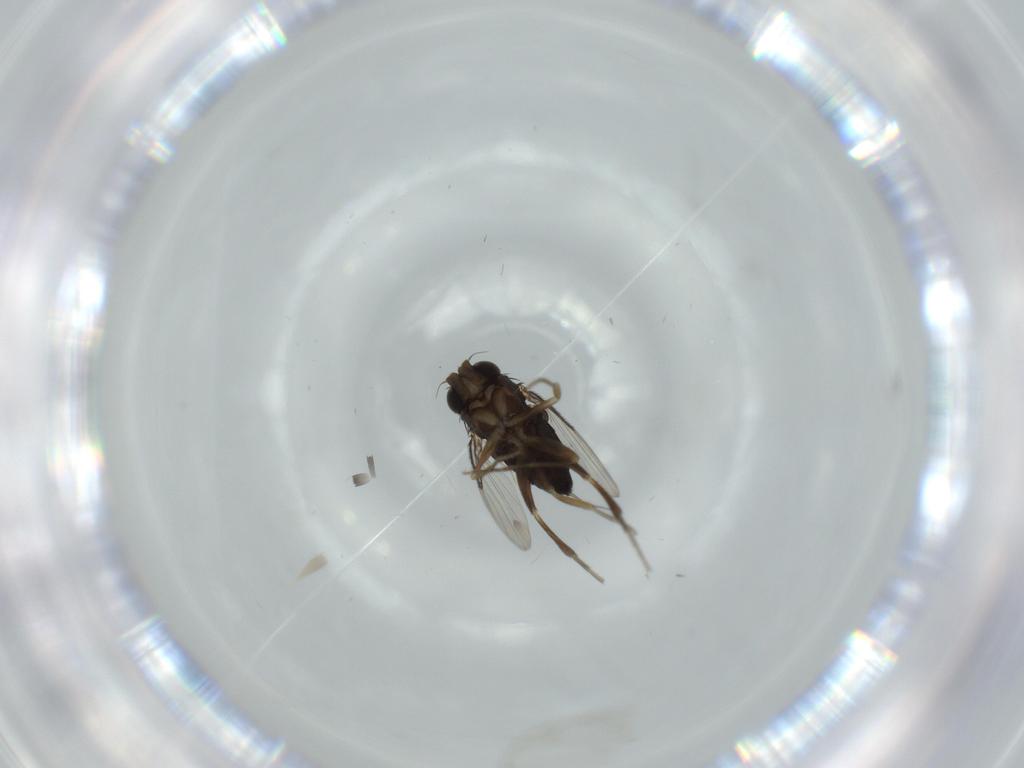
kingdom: Animalia
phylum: Arthropoda
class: Insecta
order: Diptera
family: Phoridae
